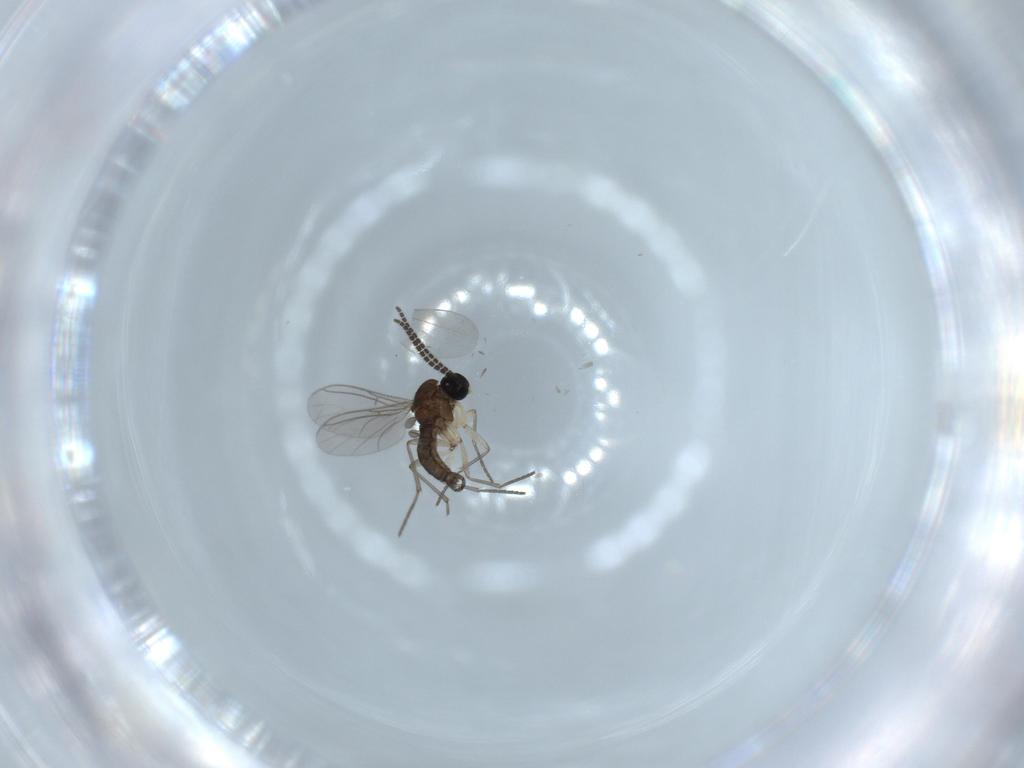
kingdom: Animalia
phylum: Arthropoda
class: Insecta
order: Diptera
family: Sciaridae
